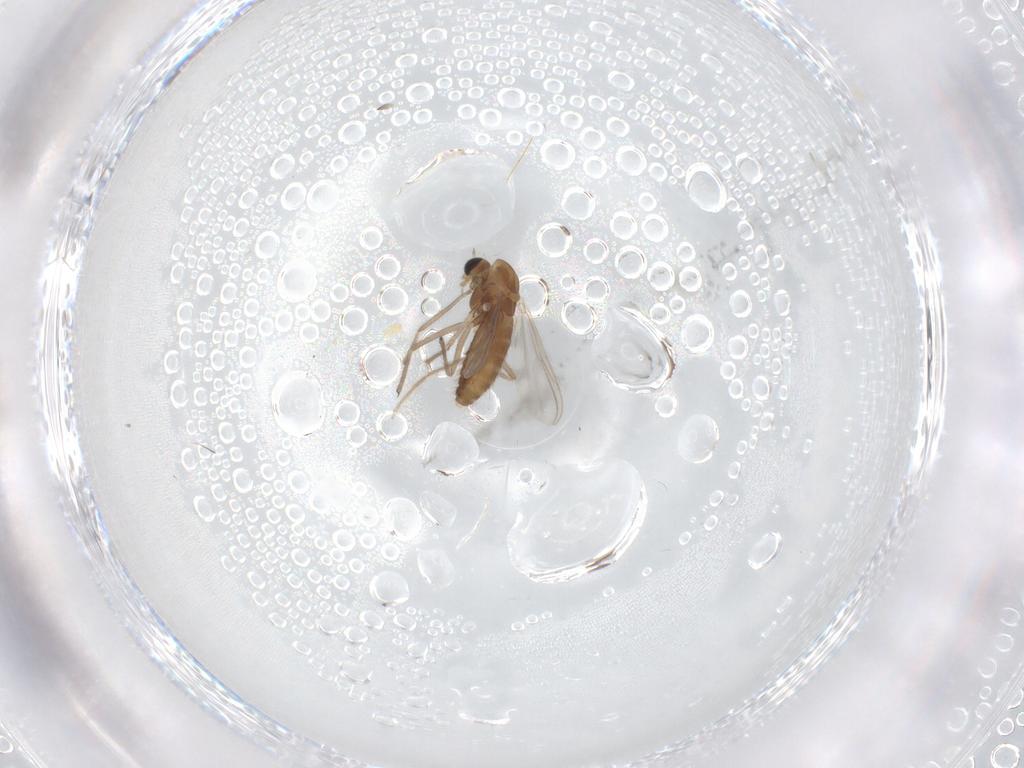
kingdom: Animalia
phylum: Arthropoda
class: Insecta
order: Diptera
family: Chironomidae
